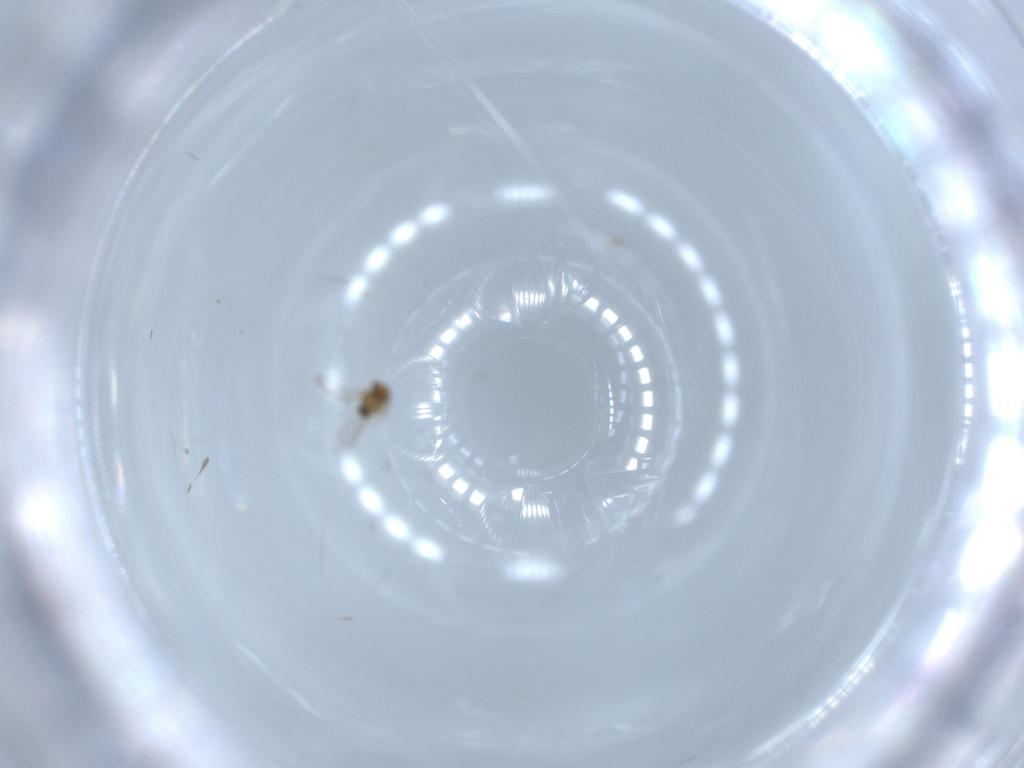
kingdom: Animalia
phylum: Arthropoda
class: Insecta
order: Hymenoptera
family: Aphelinidae
